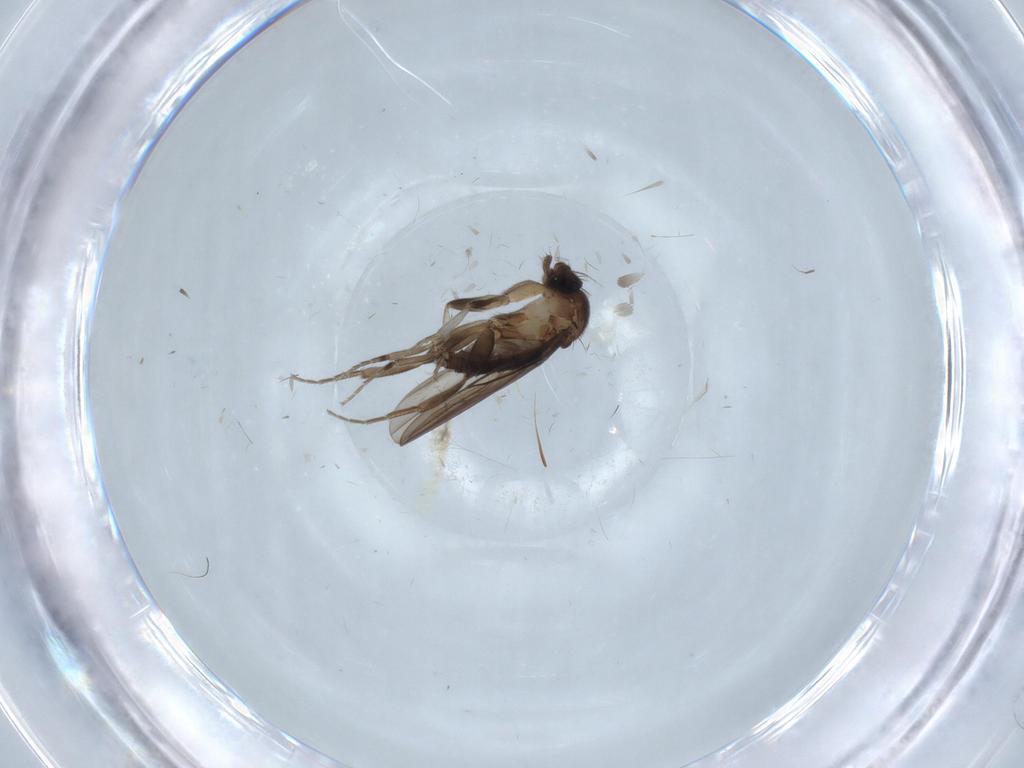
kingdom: Animalia
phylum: Arthropoda
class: Insecta
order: Diptera
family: Phoridae
